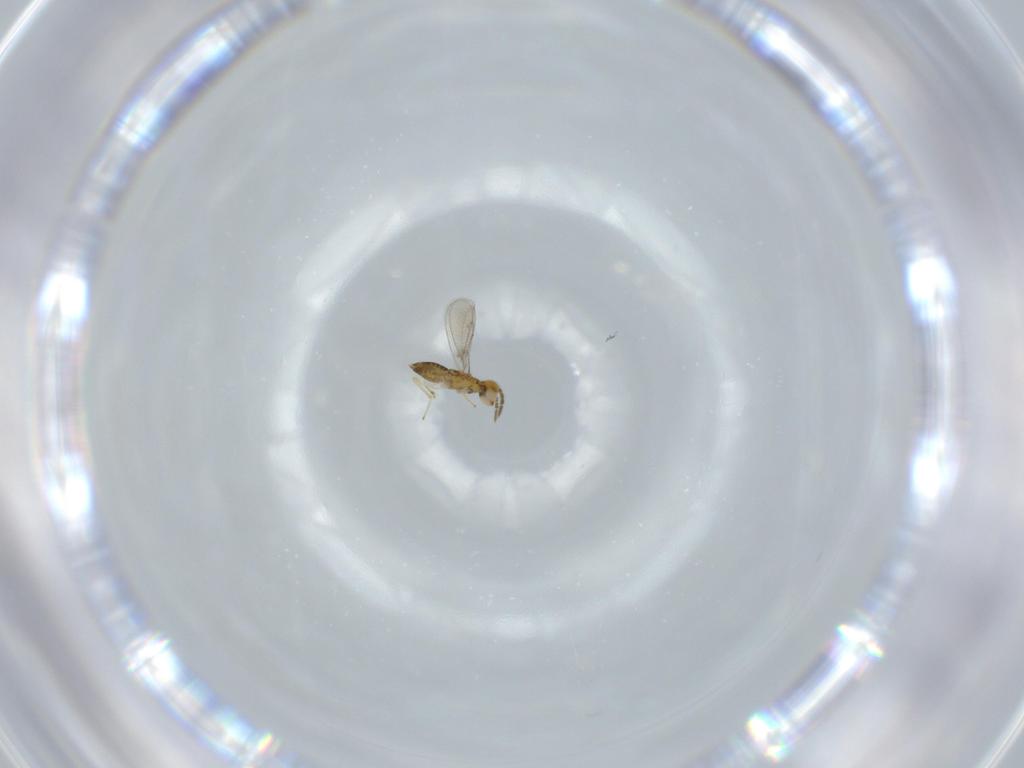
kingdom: Animalia
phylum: Arthropoda
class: Insecta
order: Hymenoptera
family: Aphelinidae
